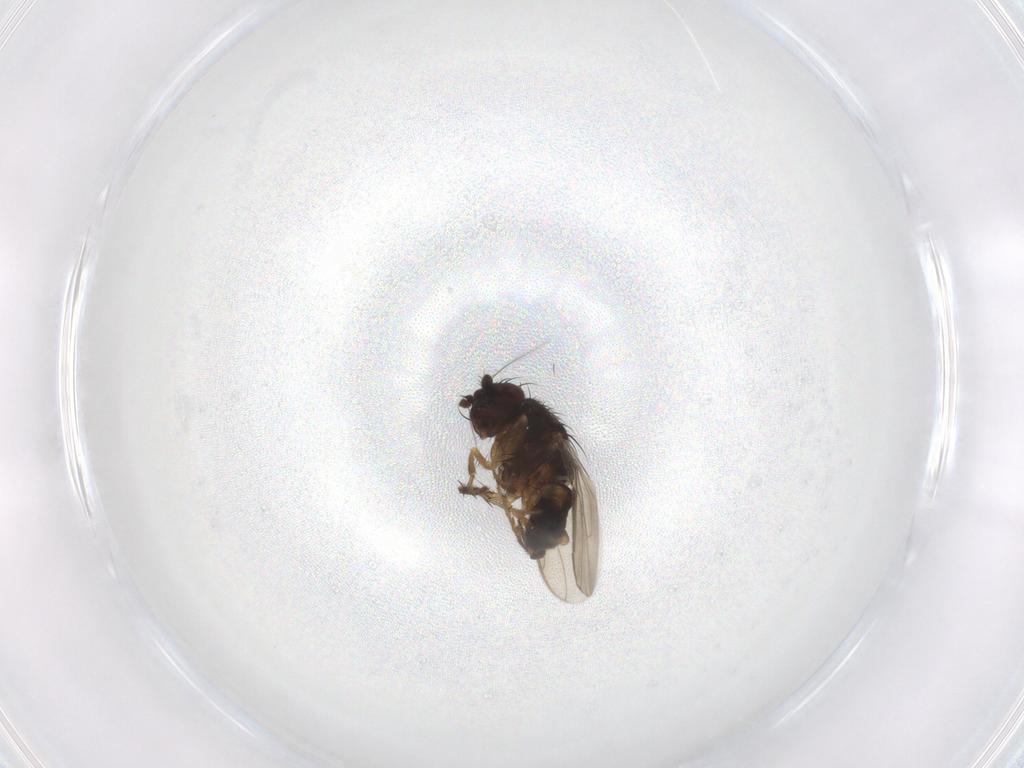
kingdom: Animalia
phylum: Arthropoda
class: Insecta
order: Diptera
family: Sphaeroceridae
